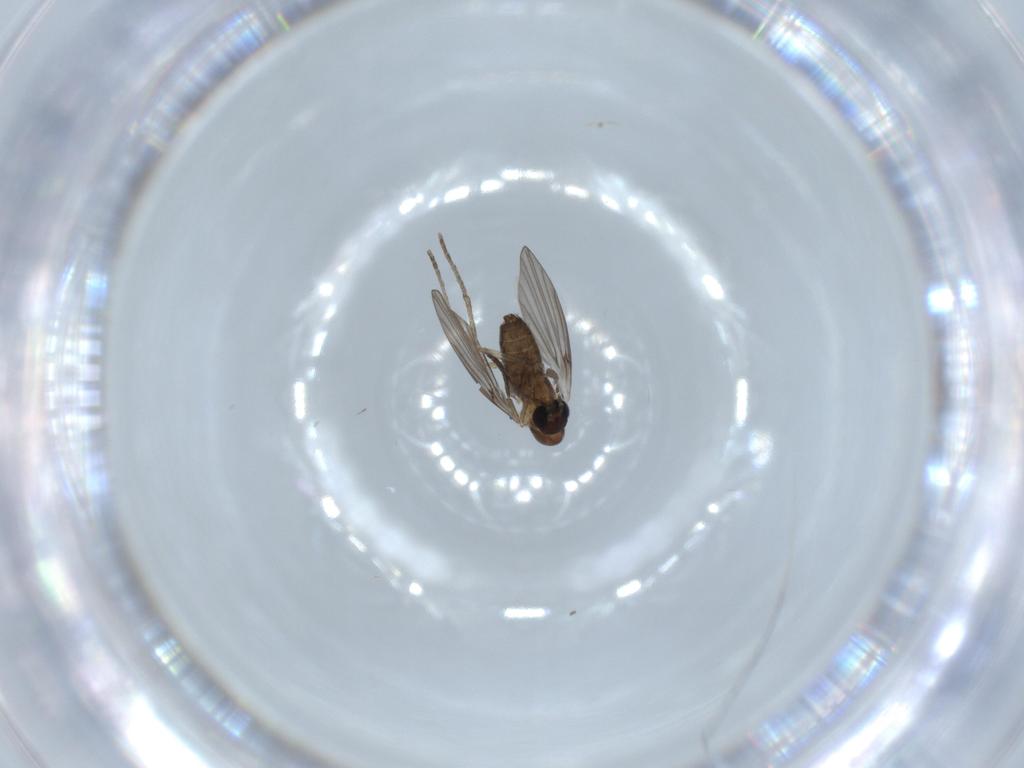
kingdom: Animalia
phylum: Arthropoda
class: Insecta
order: Diptera
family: Psychodidae
